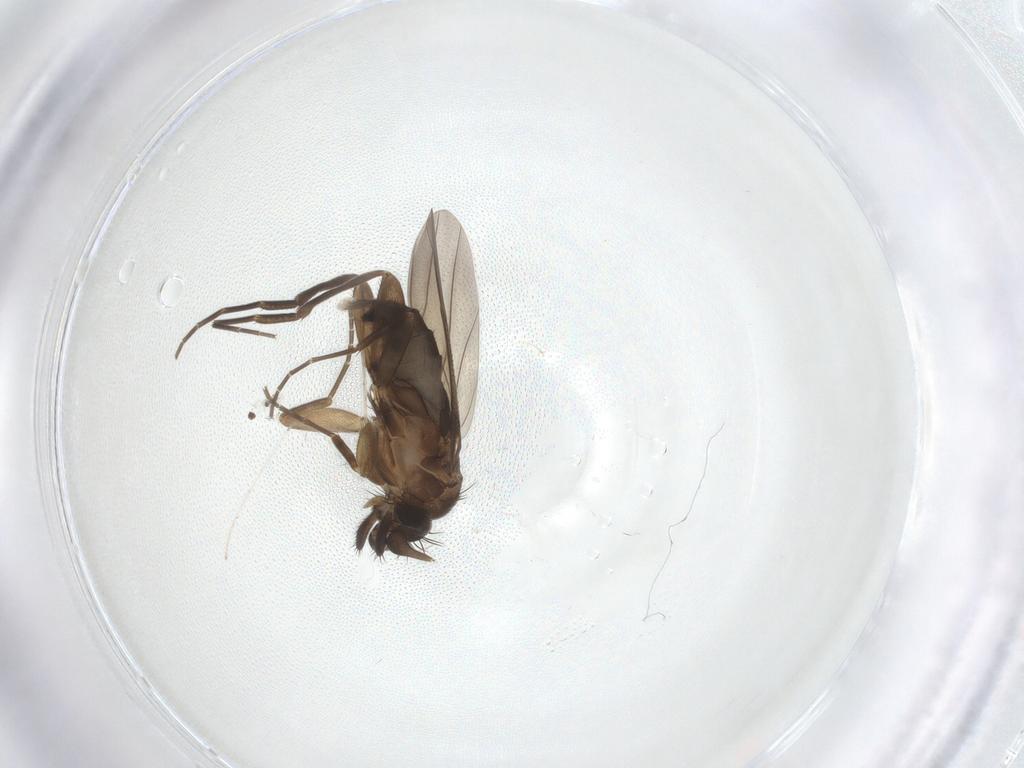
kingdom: Animalia
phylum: Arthropoda
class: Insecta
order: Diptera
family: Phoridae
